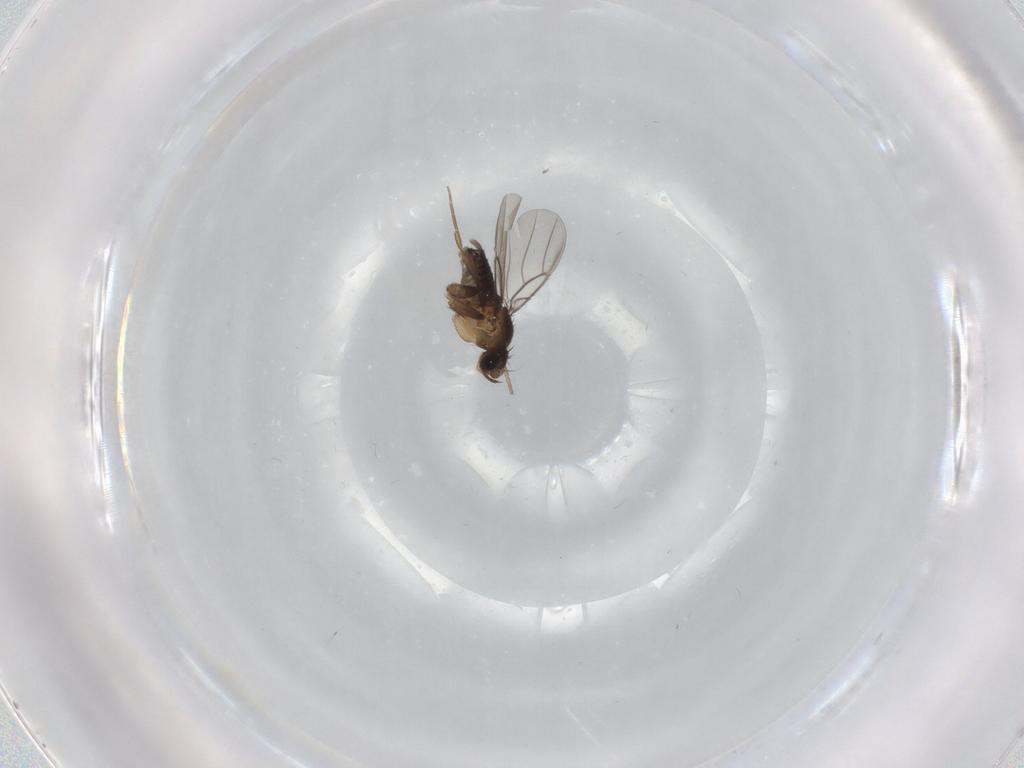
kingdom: Animalia
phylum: Arthropoda
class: Insecta
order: Diptera
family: Phoridae
